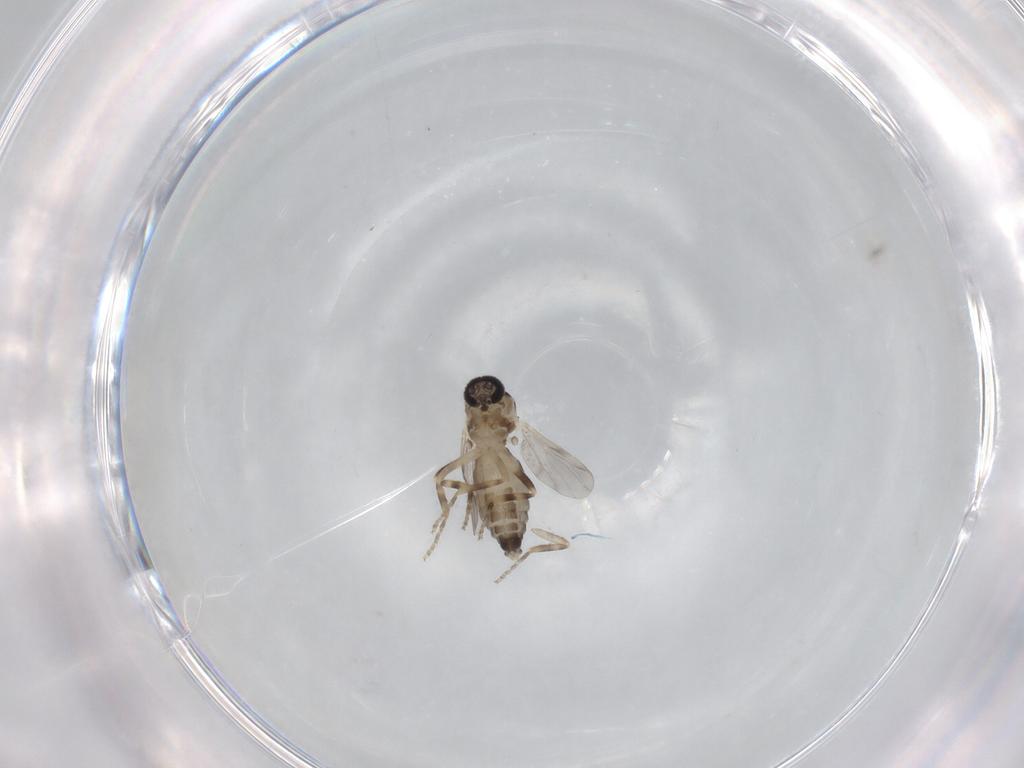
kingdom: Animalia
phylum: Arthropoda
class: Insecta
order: Diptera
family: Ceratopogonidae
